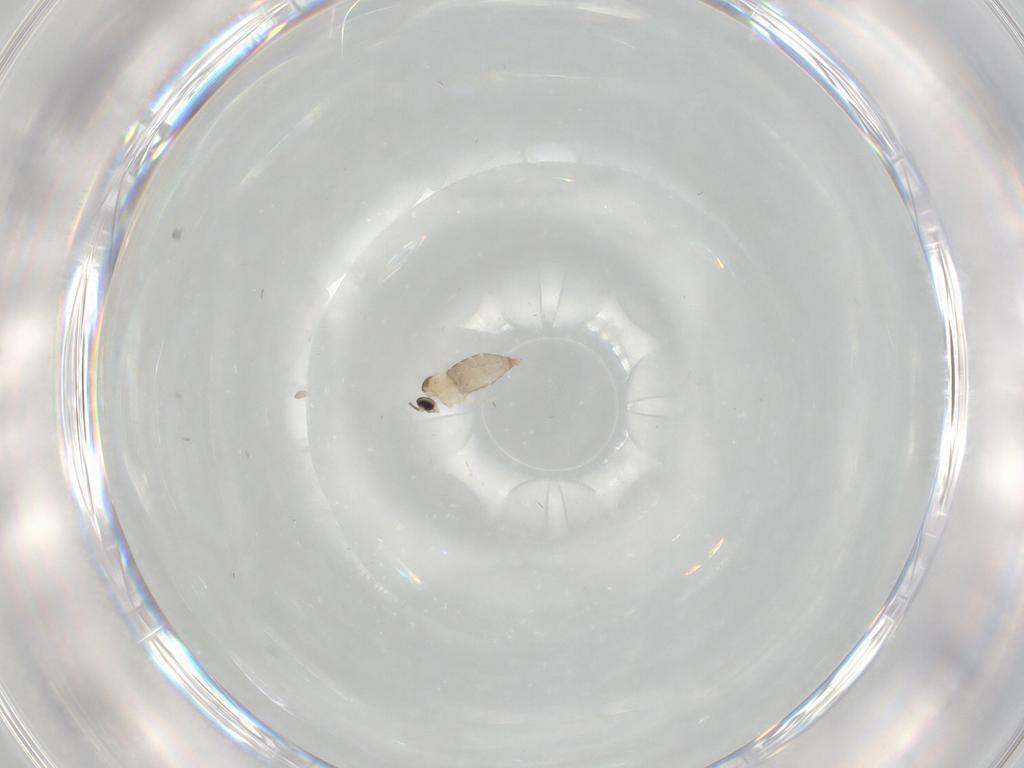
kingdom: Animalia
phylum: Arthropoda
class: Insecta
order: Diptera
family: Cecidomyiidae
